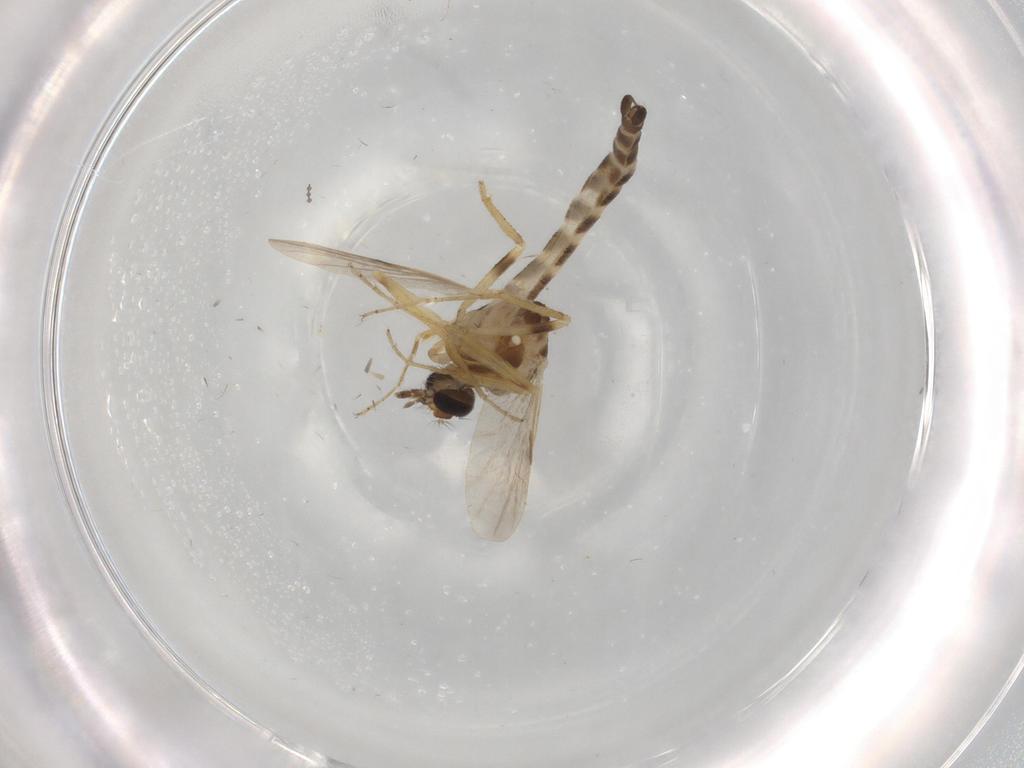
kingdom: Animalia
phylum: Arthropoda
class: Insecta
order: Diptera
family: Ceratopogonidae
